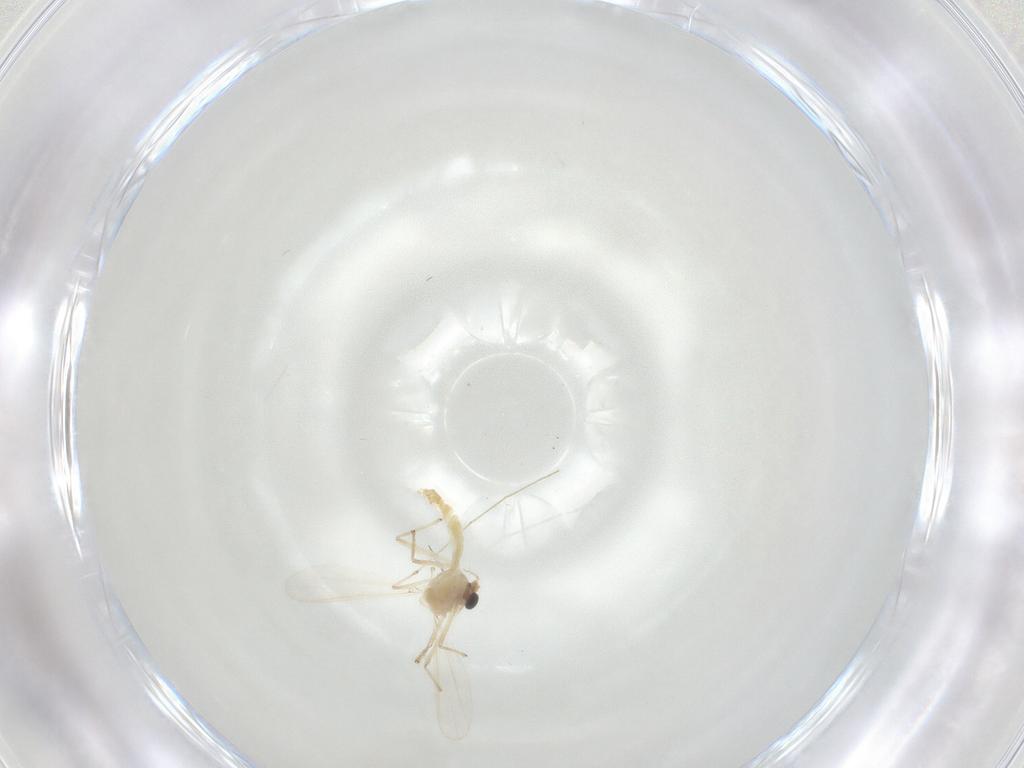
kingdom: Animalia
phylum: Arthropoda
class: Insecta
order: Diptera
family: Chironomidae
